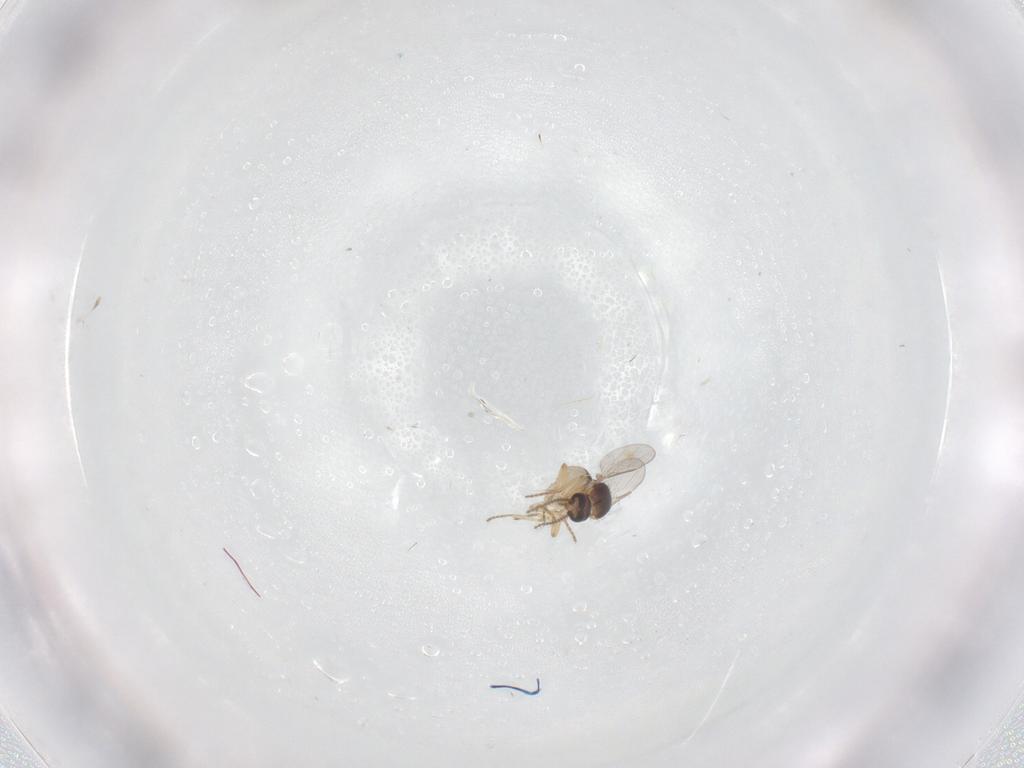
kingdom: Animalia
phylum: Arthropoda
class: Insecta
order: Diptera
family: Ceratopogonidae
